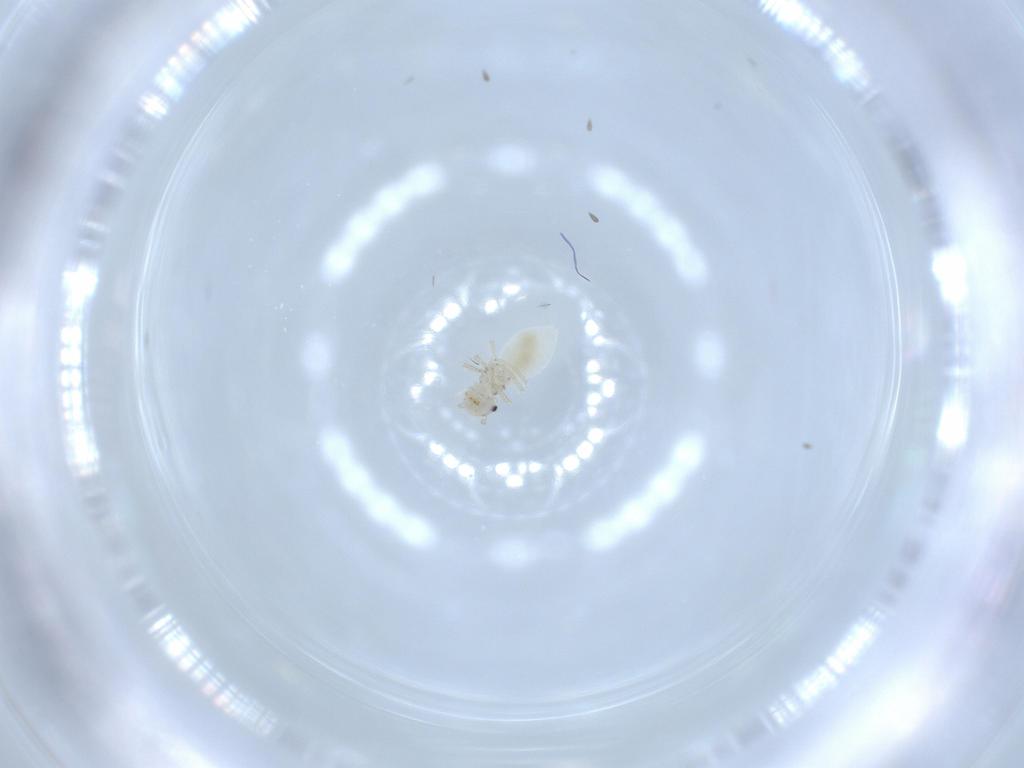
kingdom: Animalia
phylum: Arthropoda
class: Insecta
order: Psocodea
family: Amphipsocidae
